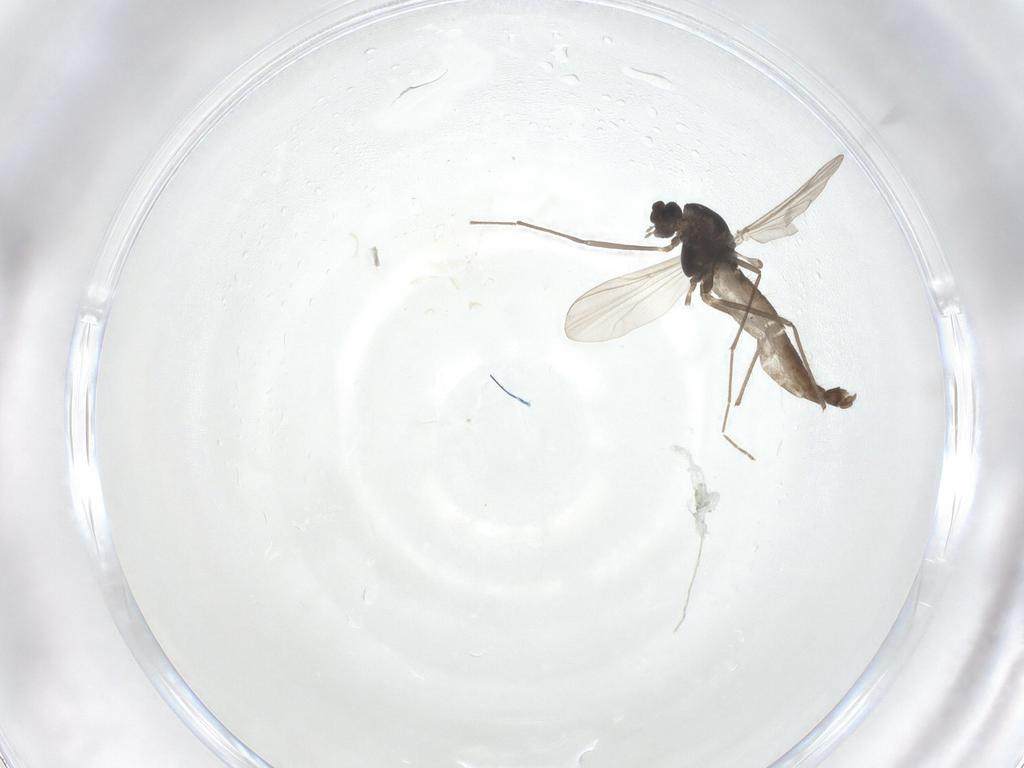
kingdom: Animalia
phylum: Arthropoda
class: Insecta
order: Diptera
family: Chironomidae
